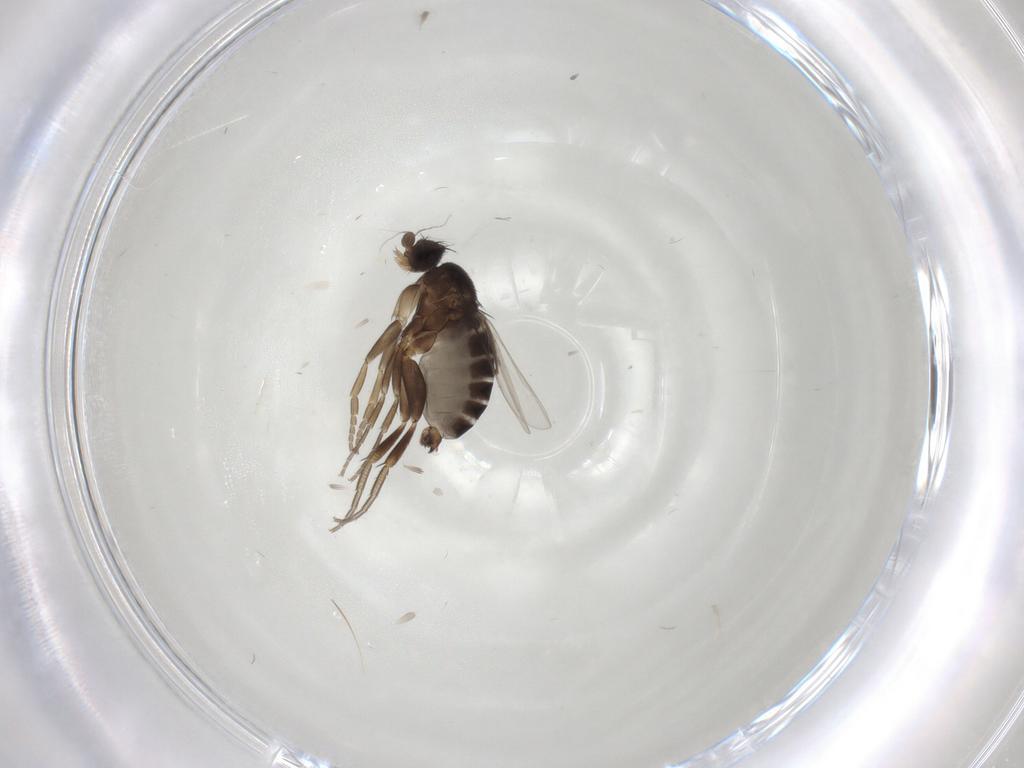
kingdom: Animalia
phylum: Arthropoda
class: Insecta
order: Diptera
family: Phoridae
